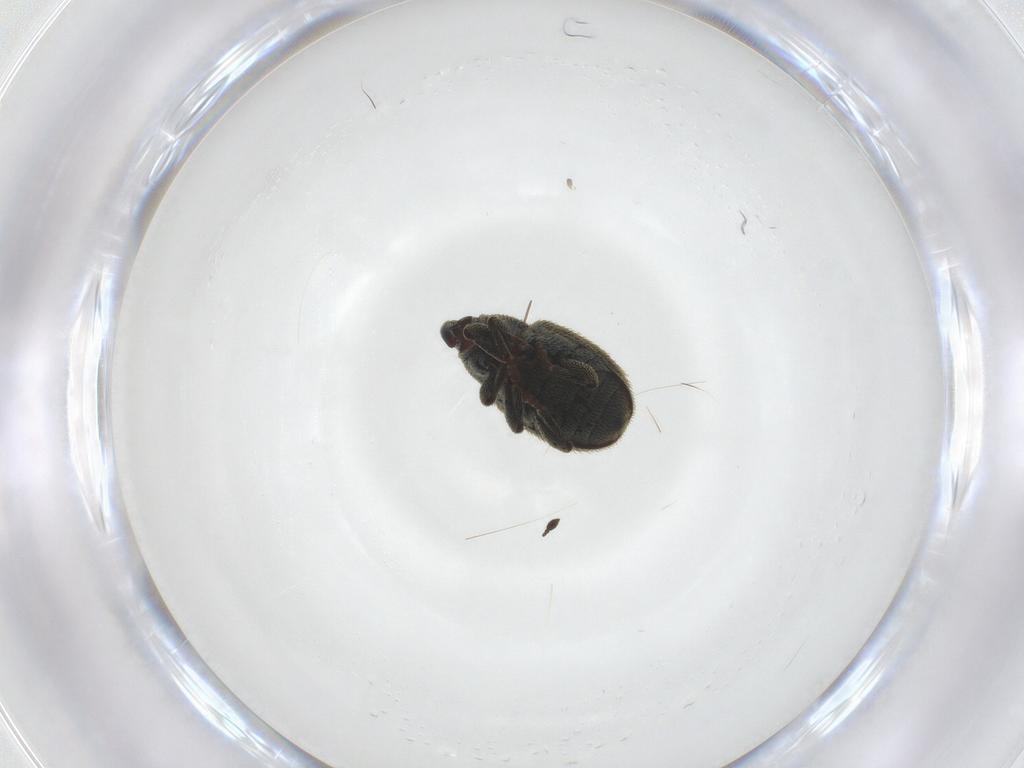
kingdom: Animalia
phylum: Arthropoda
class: Insecta
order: Coleoptera
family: Curculionidae
